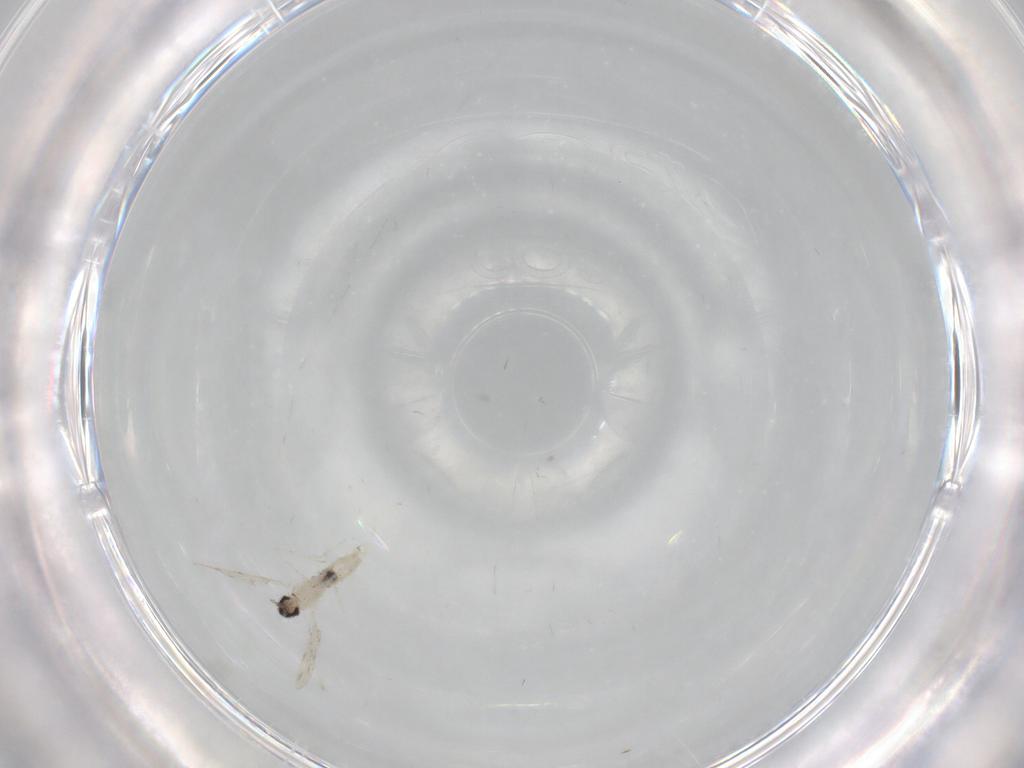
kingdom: Animalia
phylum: Arthropoda
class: Insecta
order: Diptera
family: Cecidomyiidae
